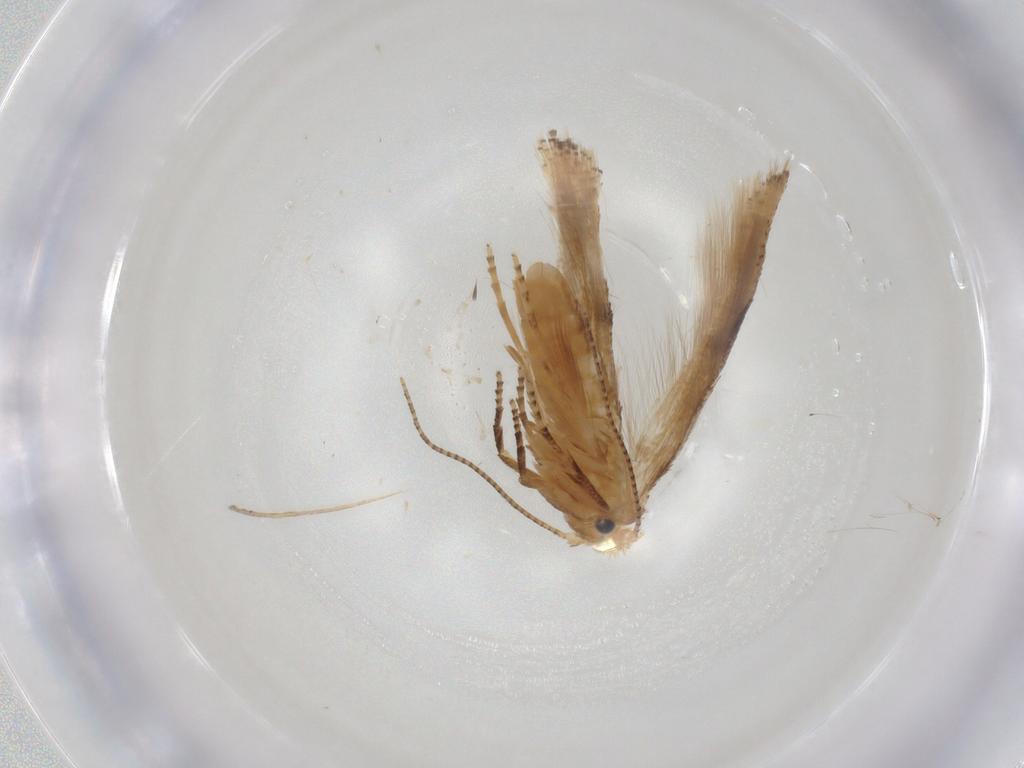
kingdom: Animalia
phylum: Arthropoda
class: Insecta
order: Lepidoptera
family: Bucculatricidae
